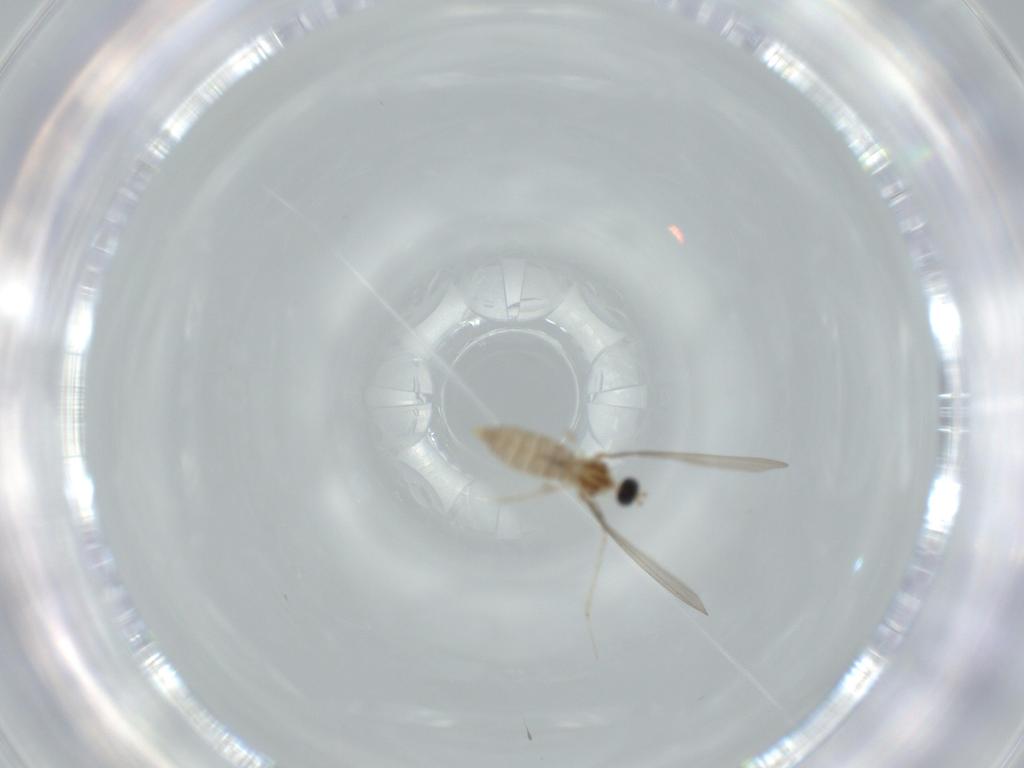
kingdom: Animalia
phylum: Arthropoda
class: Insecta
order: Diptera
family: Cecidomyiidae
